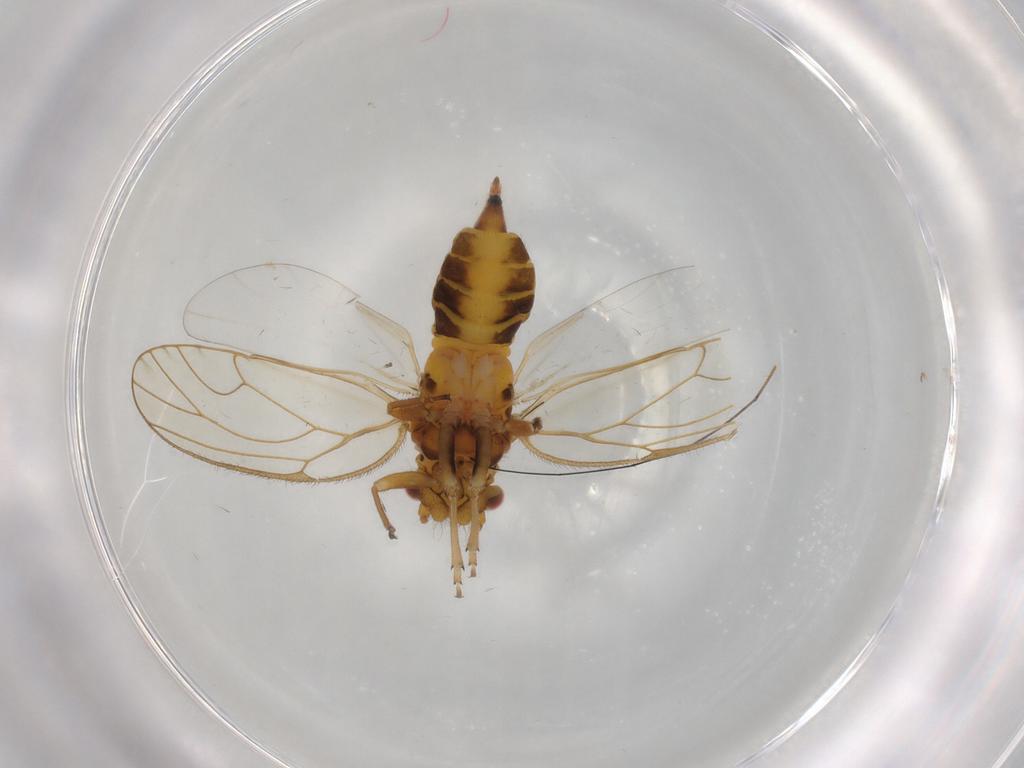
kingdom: Animalia
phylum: Arthropoda
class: Insecta
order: Hemiptera
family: Psyllidae
